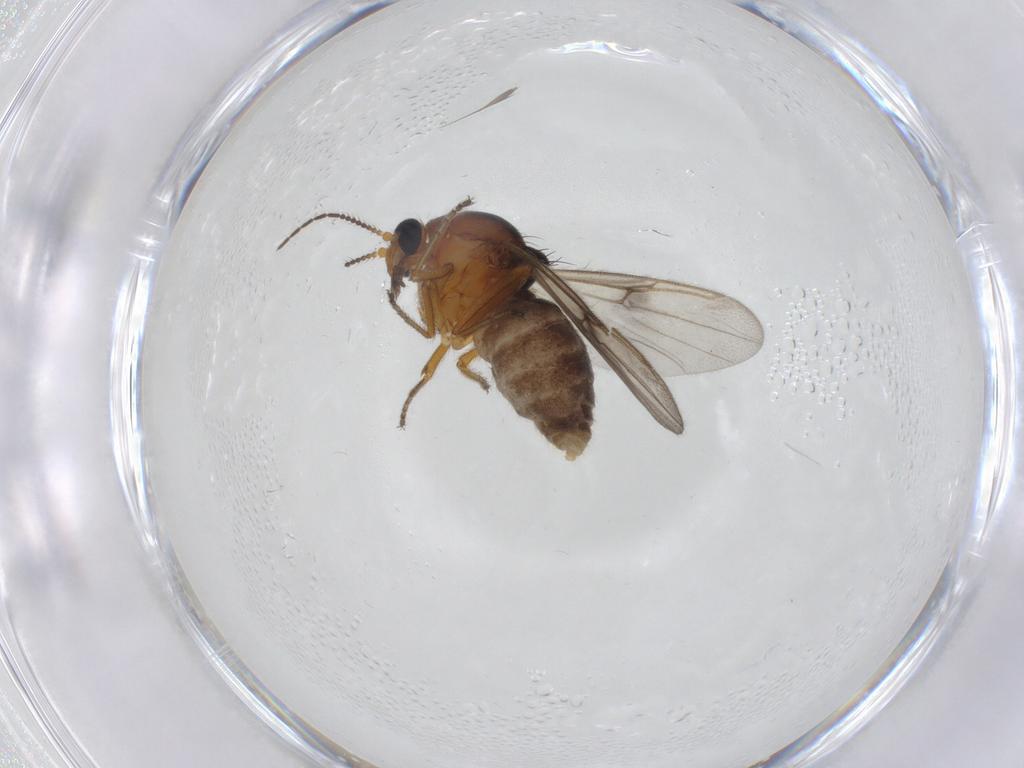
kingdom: Animalia
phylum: Arthropoda
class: Insecta
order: Diptera
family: Ceratopogonidae
